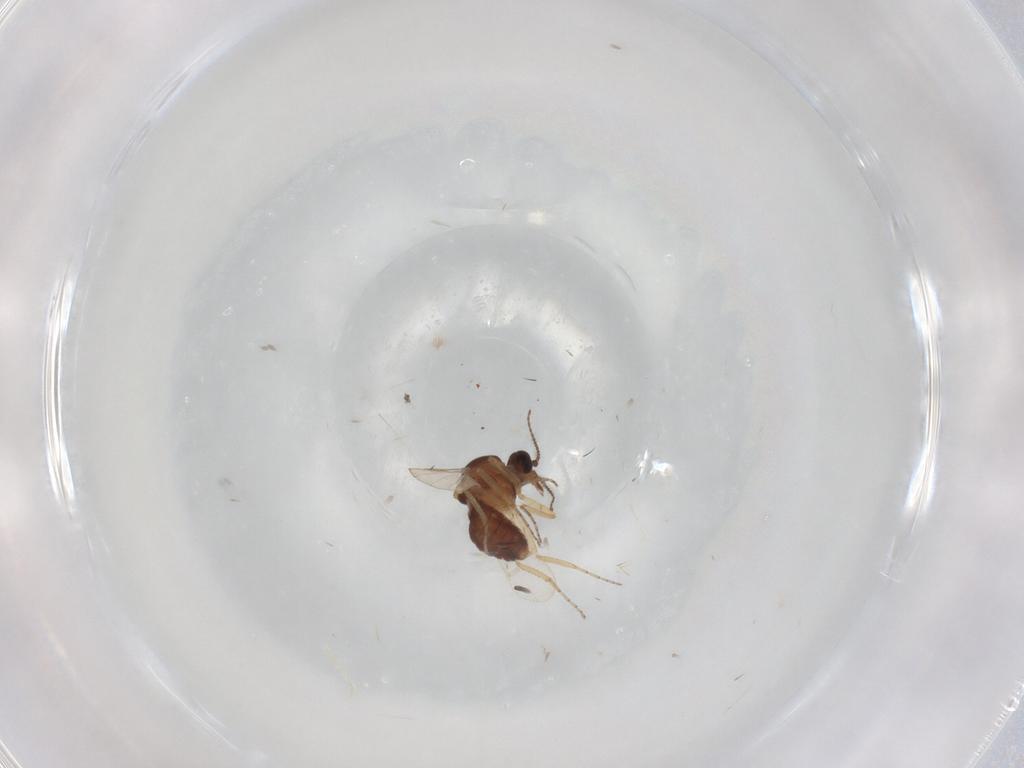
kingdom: Animalia
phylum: Arthropoda
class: Insecta
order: Diptera
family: Ceratopogonidae
